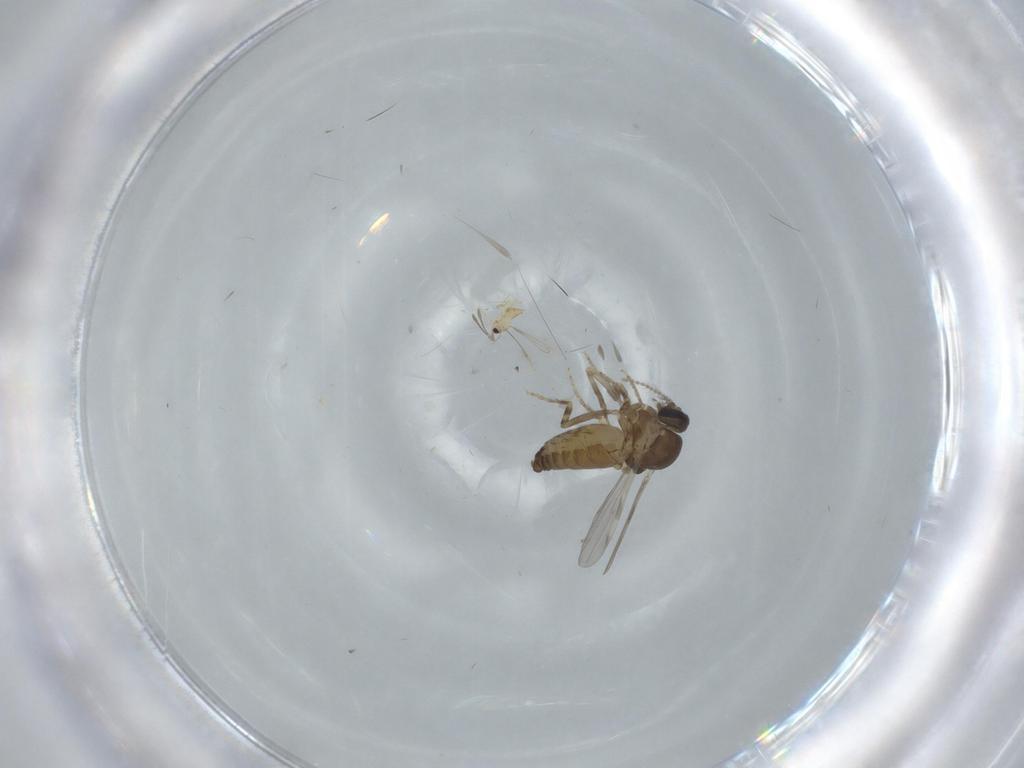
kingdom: Animalia
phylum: Arthropoda
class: Insecta
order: Diptera
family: Ceratopogonidae
